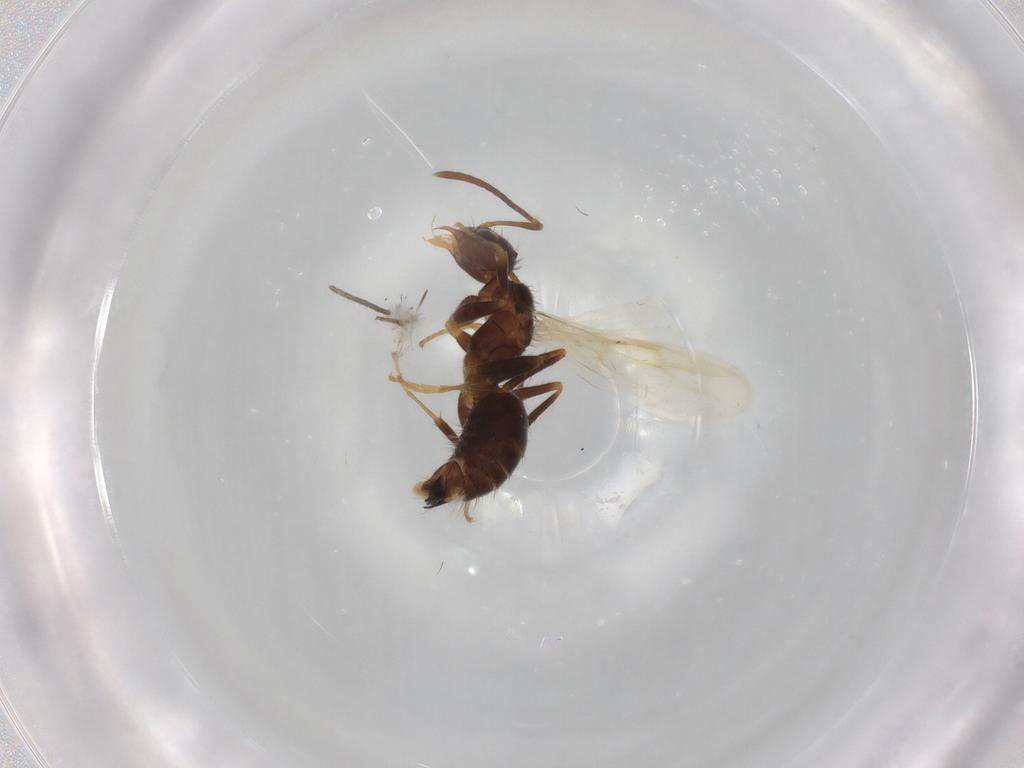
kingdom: Animalia
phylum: Arthropoda
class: Insecta
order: Hymenoptera
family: Formicidae
